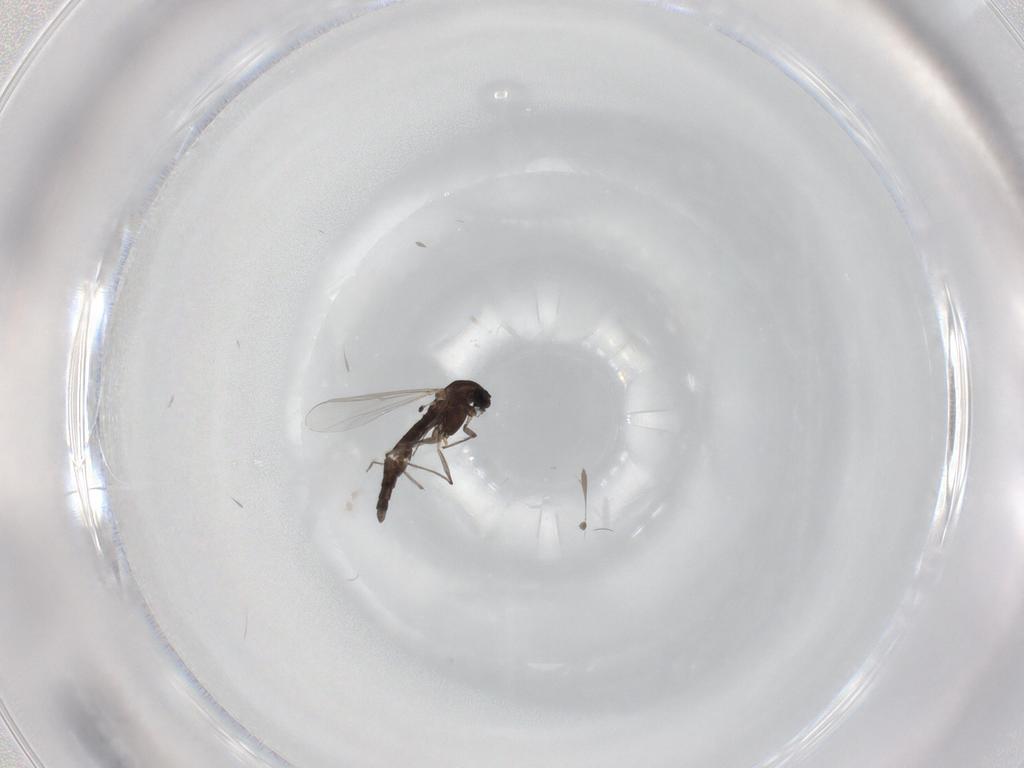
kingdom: Animalia
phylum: Arthropoda
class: Insecta
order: Diptera
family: Chironomidae
